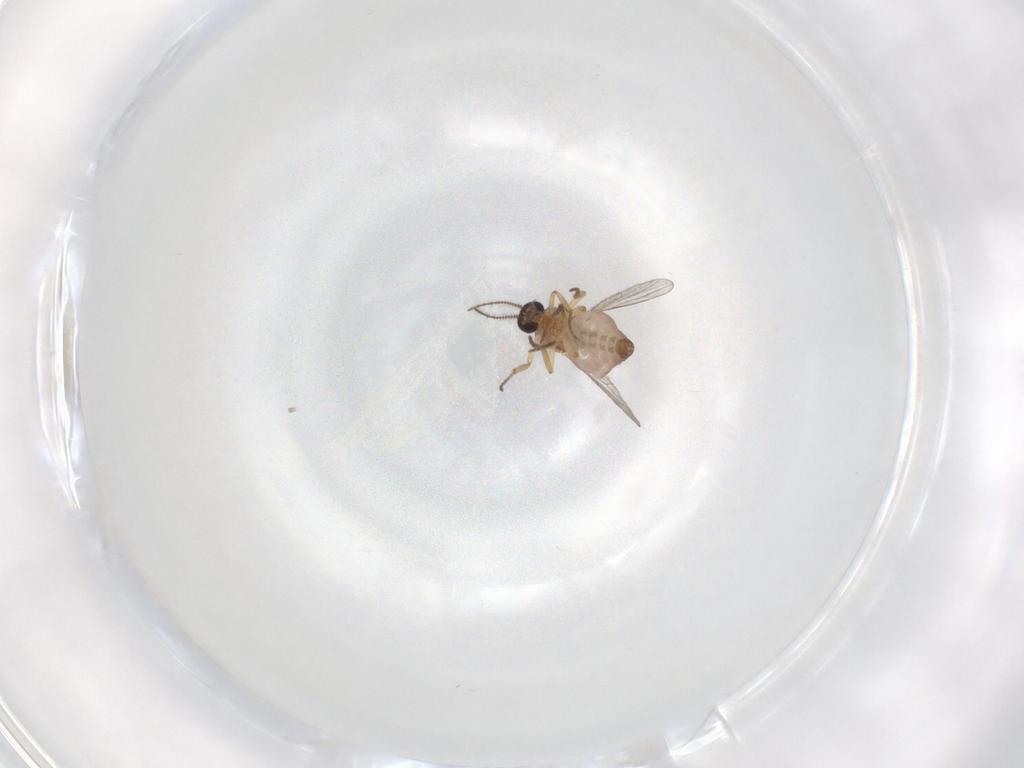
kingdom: Animalia
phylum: Arthropoda
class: Insecta
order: Diptera
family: Ceratopogonidae
